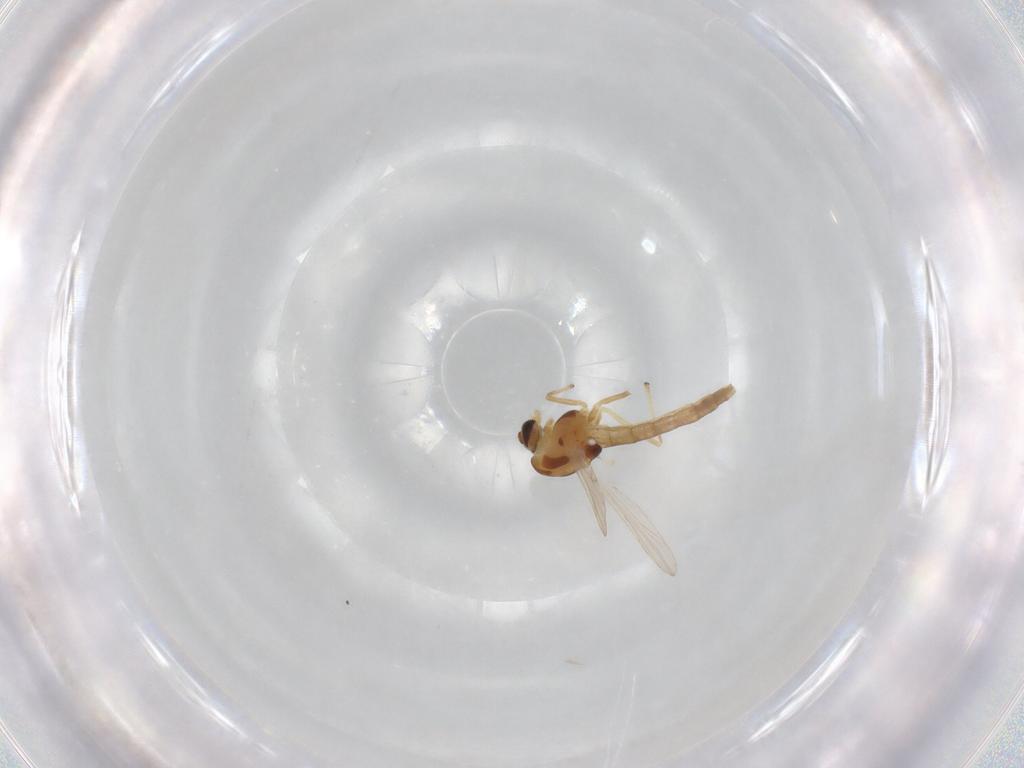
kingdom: Animalia
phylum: Arthropoda
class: Insecta
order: Diptera
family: Chironomidae
